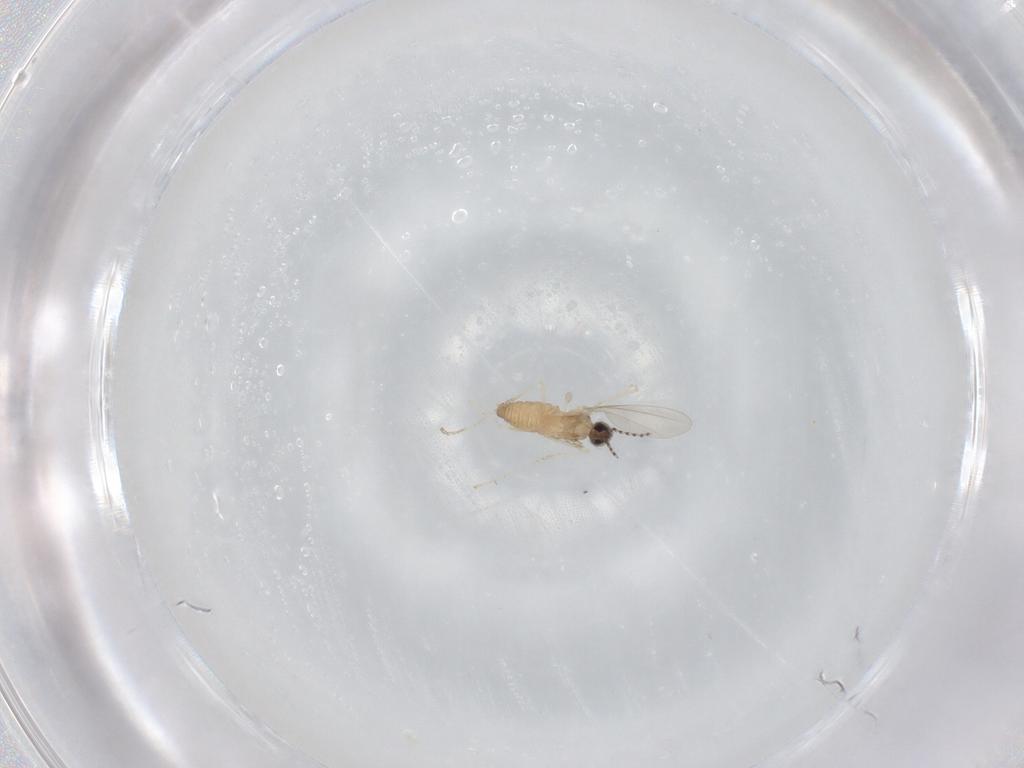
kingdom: Animalia
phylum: Arthropoda
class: Insecta
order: Diptera
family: Cecidomyiidae
